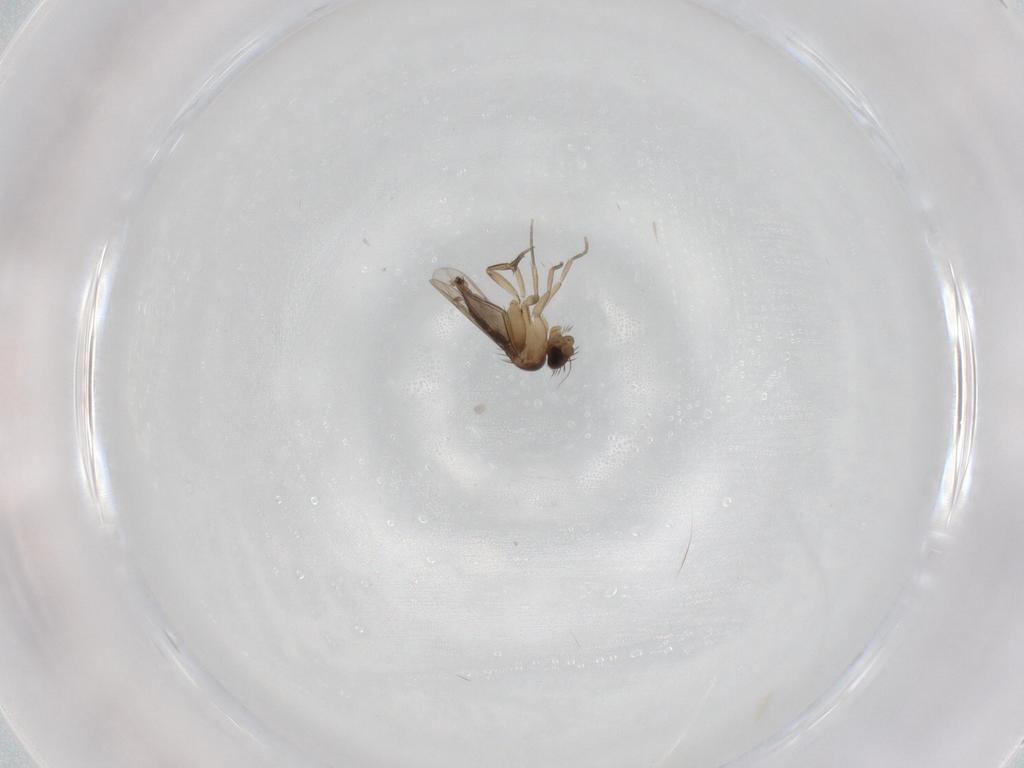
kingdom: Animalia
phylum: Arthropoda
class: Insecta
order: Diptera
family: Phoridae
